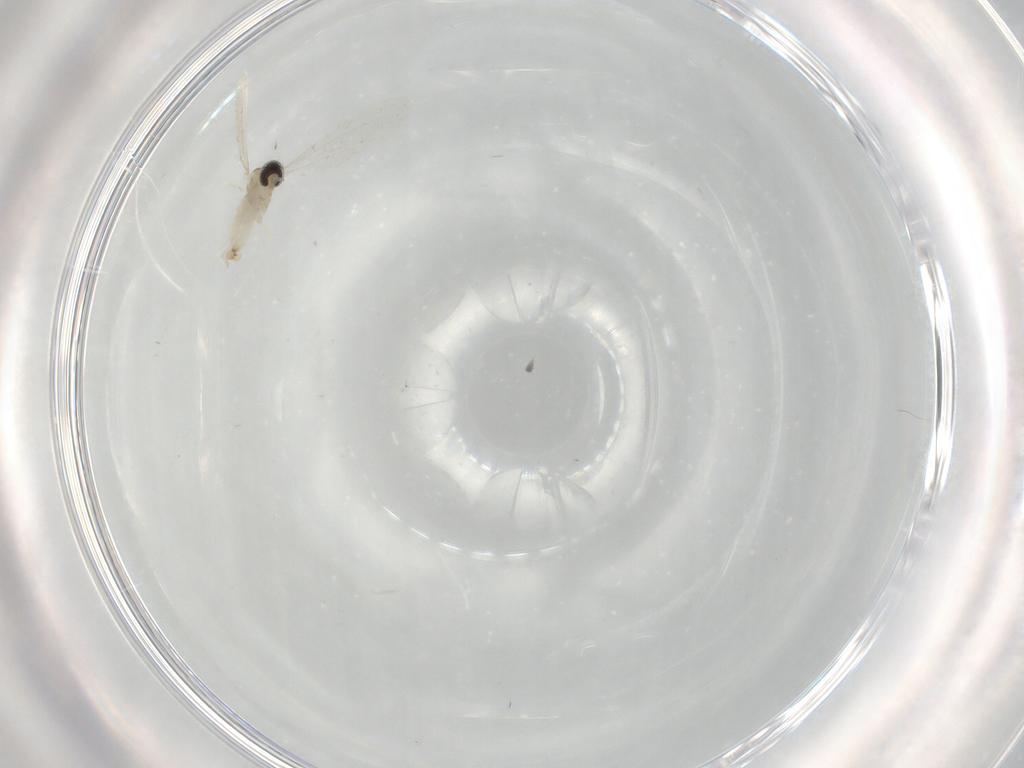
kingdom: Animalia
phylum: Arthropoda
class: Insecta
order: Diptera
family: Cecidomyiidae
